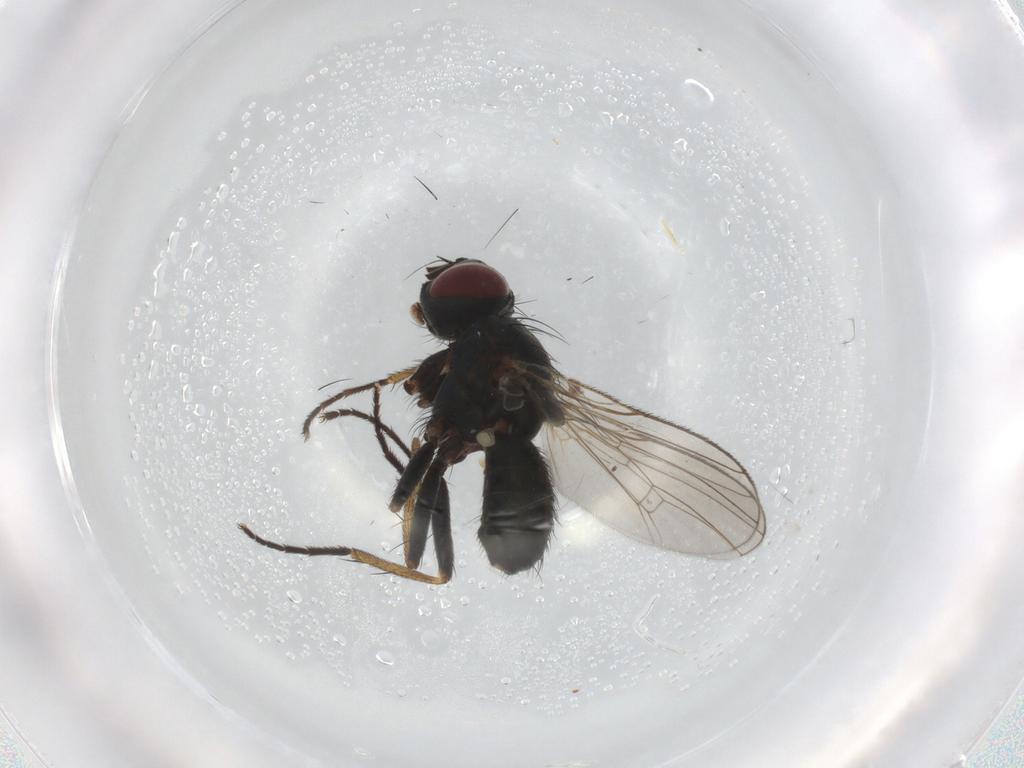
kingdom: Animalia
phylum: Arthropoda
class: Insecta
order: Diptera
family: Muscidae
